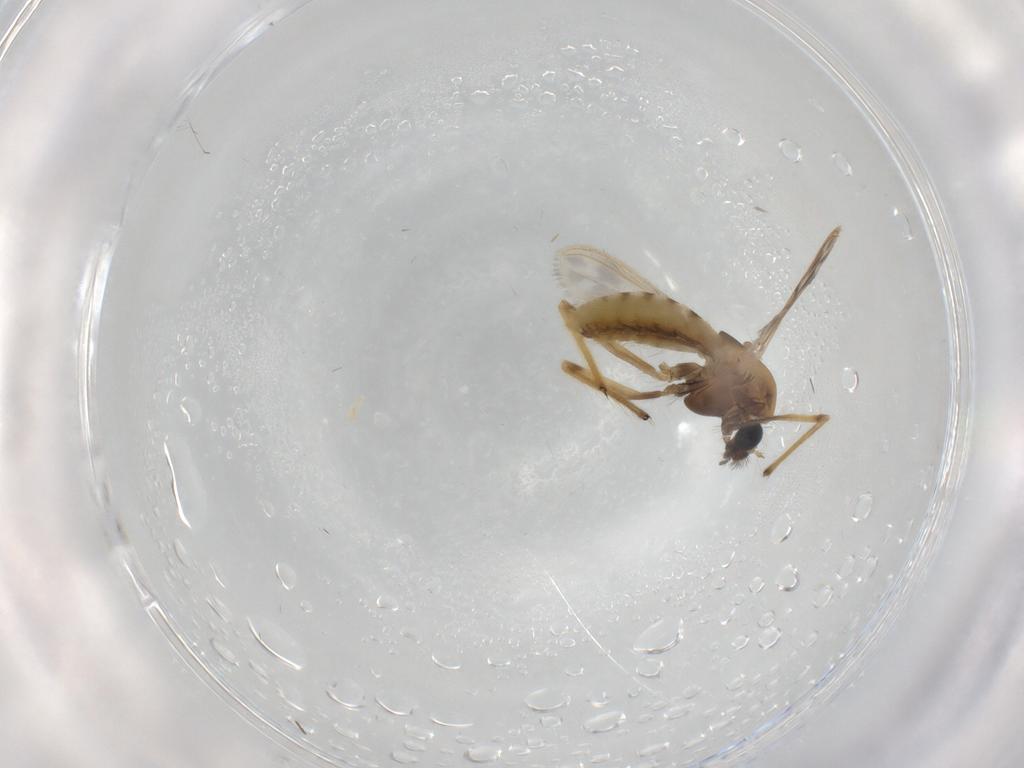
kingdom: Animalia
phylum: Arthropoda
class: Insecta
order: Diptera
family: Chironomidae
